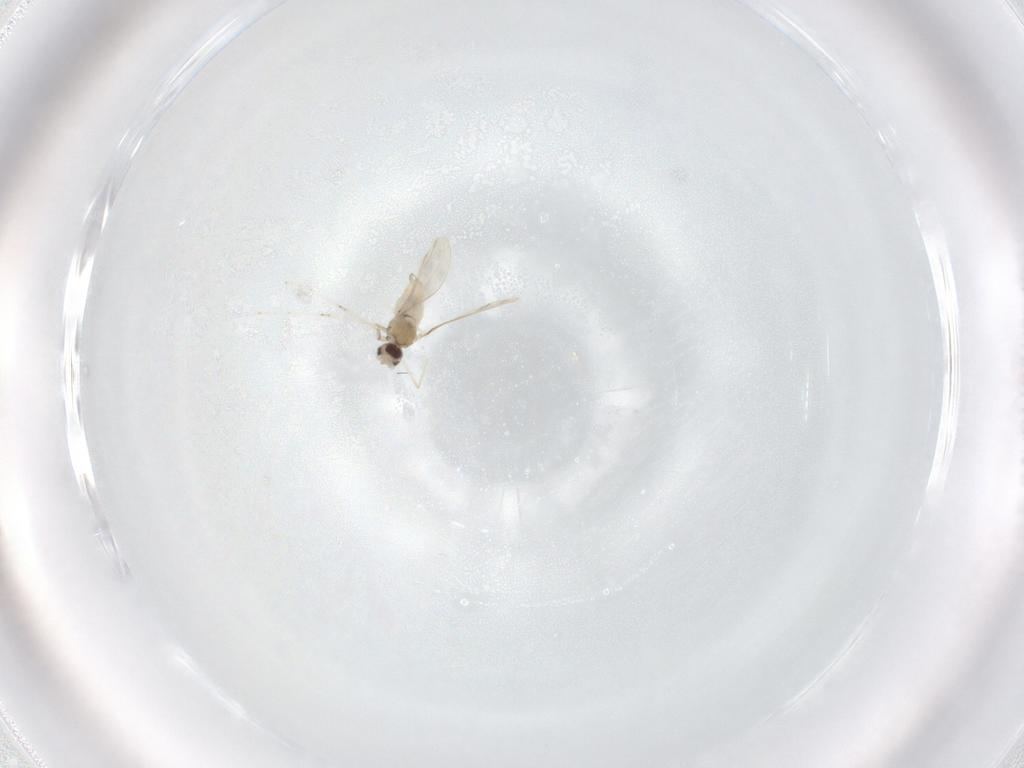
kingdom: Animalia
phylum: Arthropoda
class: Insecta
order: Diptera
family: Cecidomyiidae
